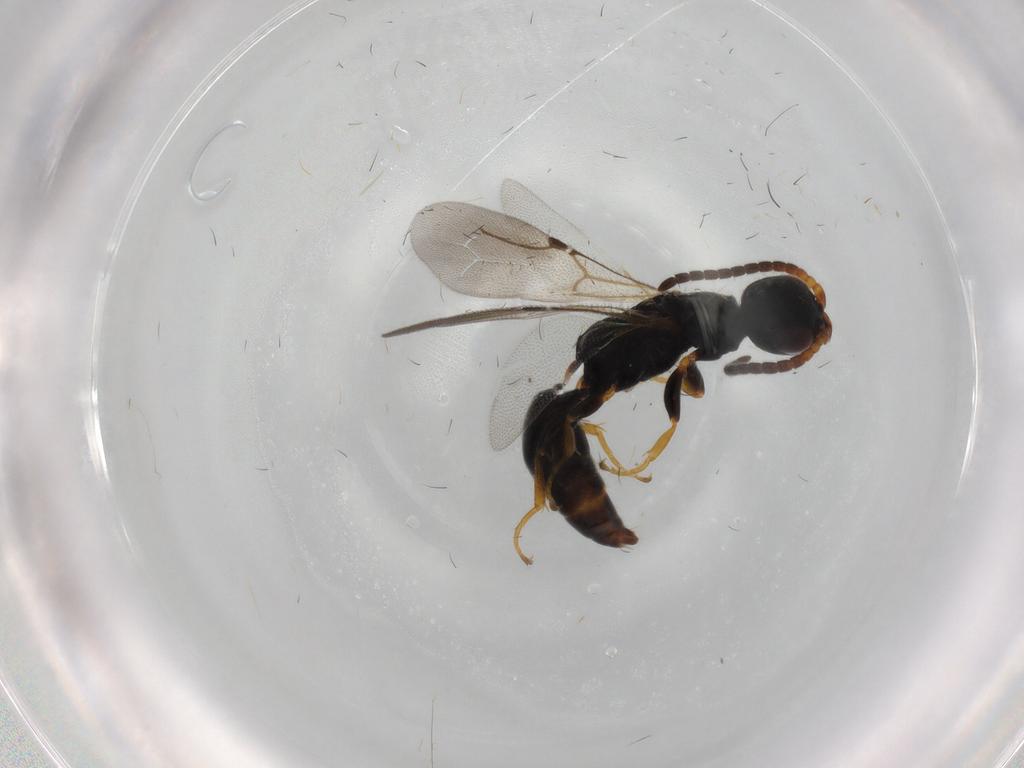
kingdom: Animalia
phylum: Arthropoda
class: Insecta
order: Hymenoptera
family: Bethylidae
